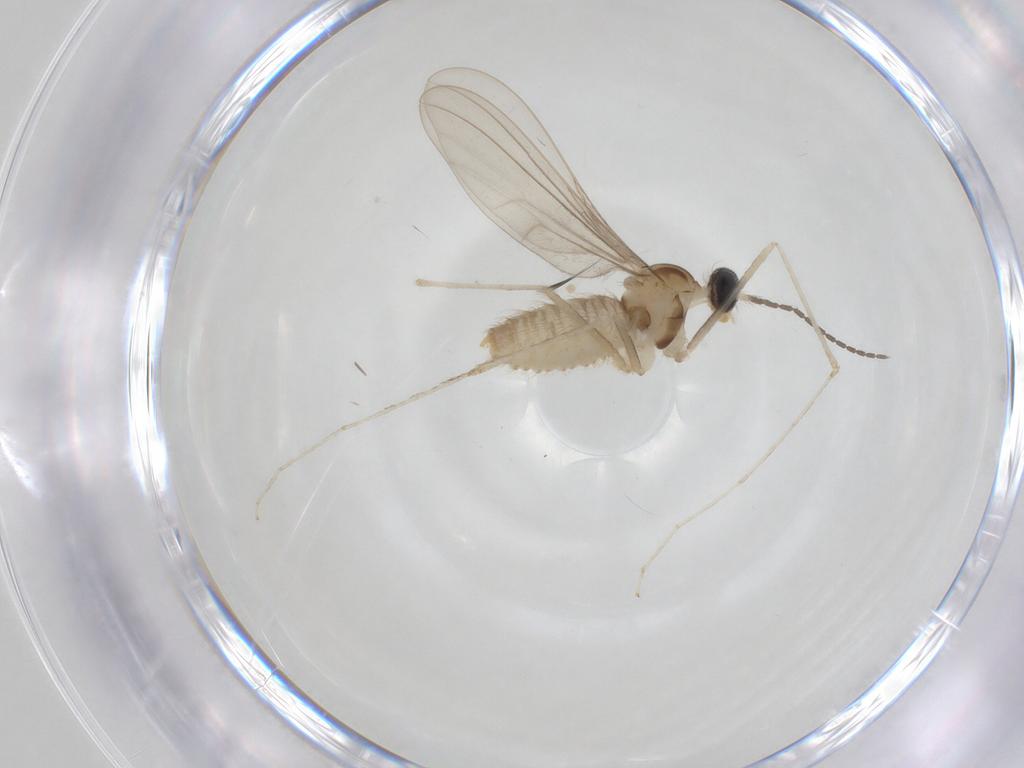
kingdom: Animalia
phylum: Arthropoda
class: Insecta
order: Diptera
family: Cecidomyiidae
